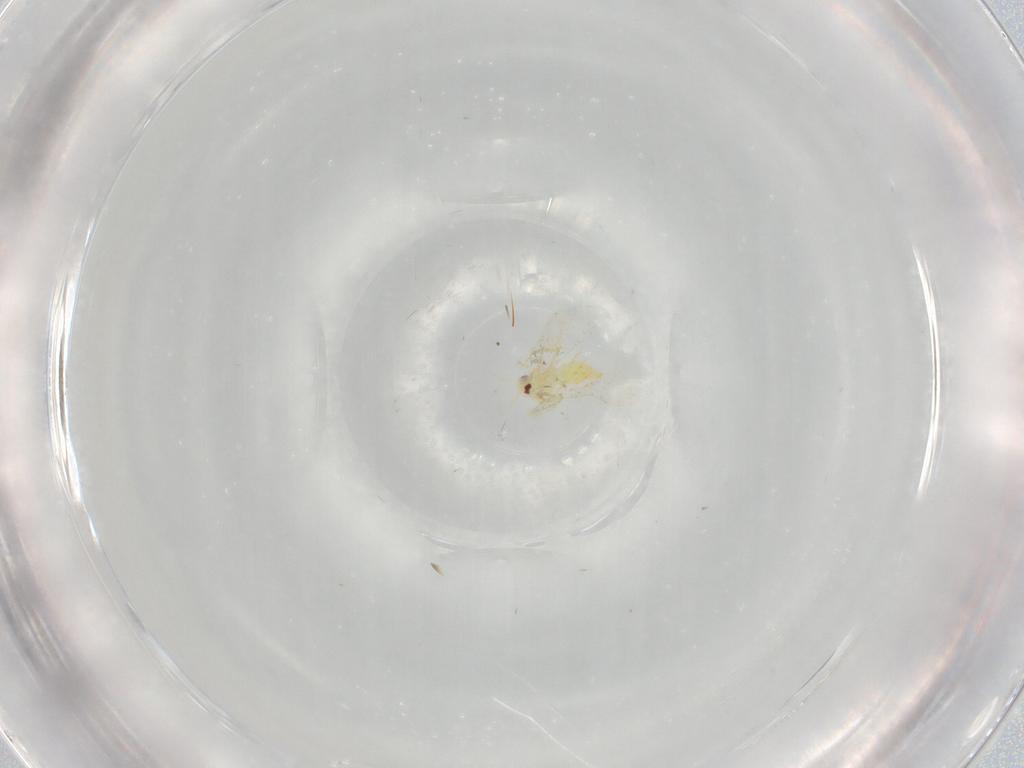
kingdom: Animalia
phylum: Arthropoda
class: Insecta
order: Hemiptera
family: Aleyrodidae
